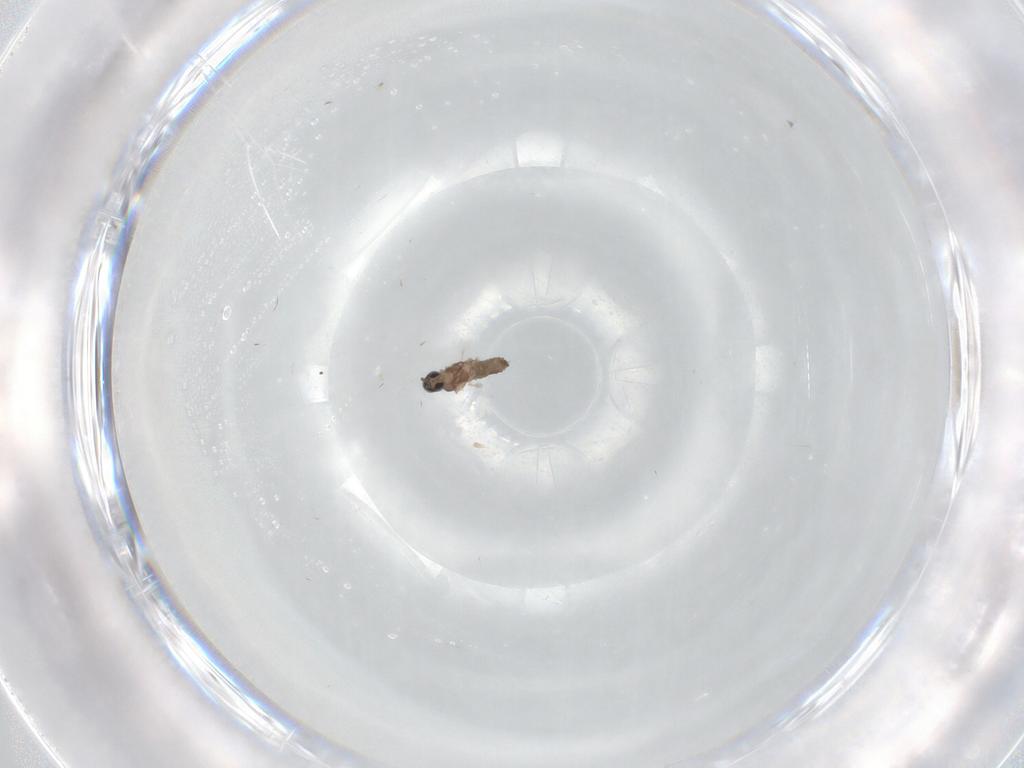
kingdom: Animalia
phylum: Arthropoda
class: Insecta
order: Diptera
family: Cecidomyiidae
